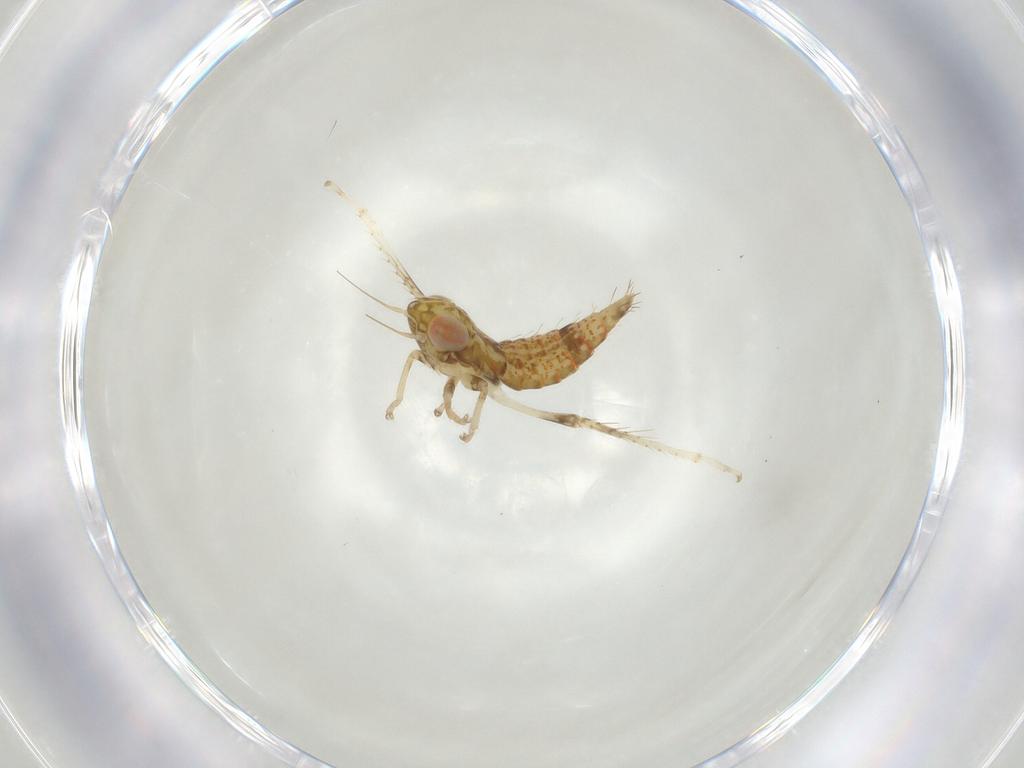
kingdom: Animalia
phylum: Arthropoda
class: Insecta
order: Hemiptera
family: Cicadellidae
